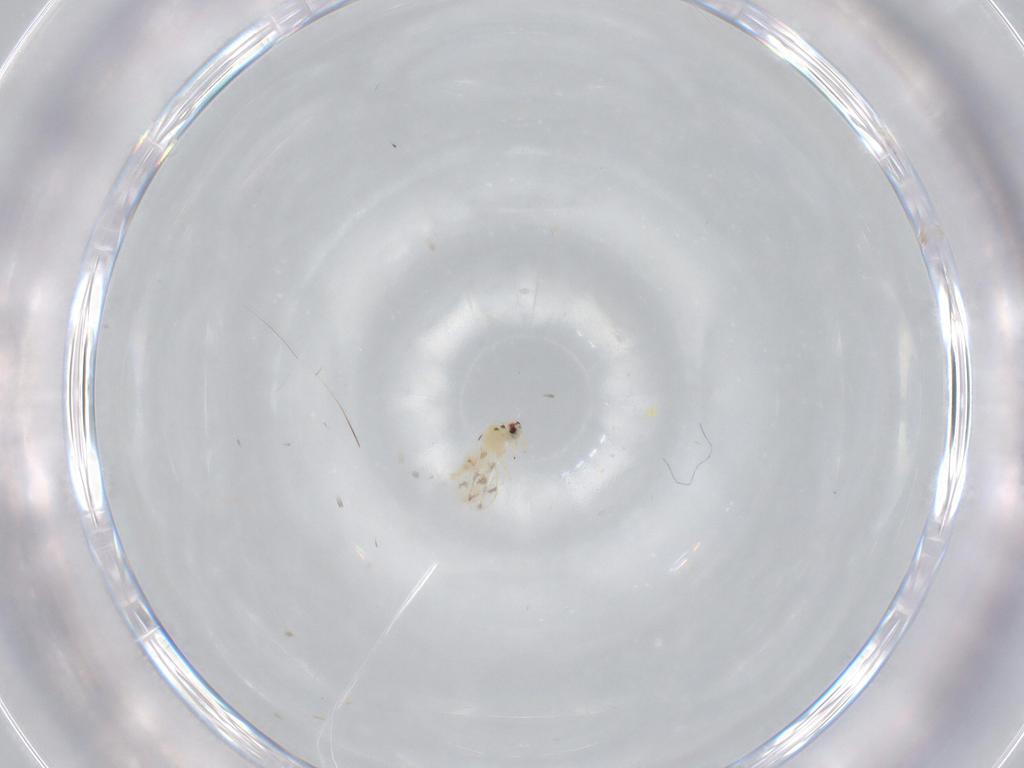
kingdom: Animalia
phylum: Arthropoda
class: Insecta
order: Hemiptera
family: Aleyrodidae
